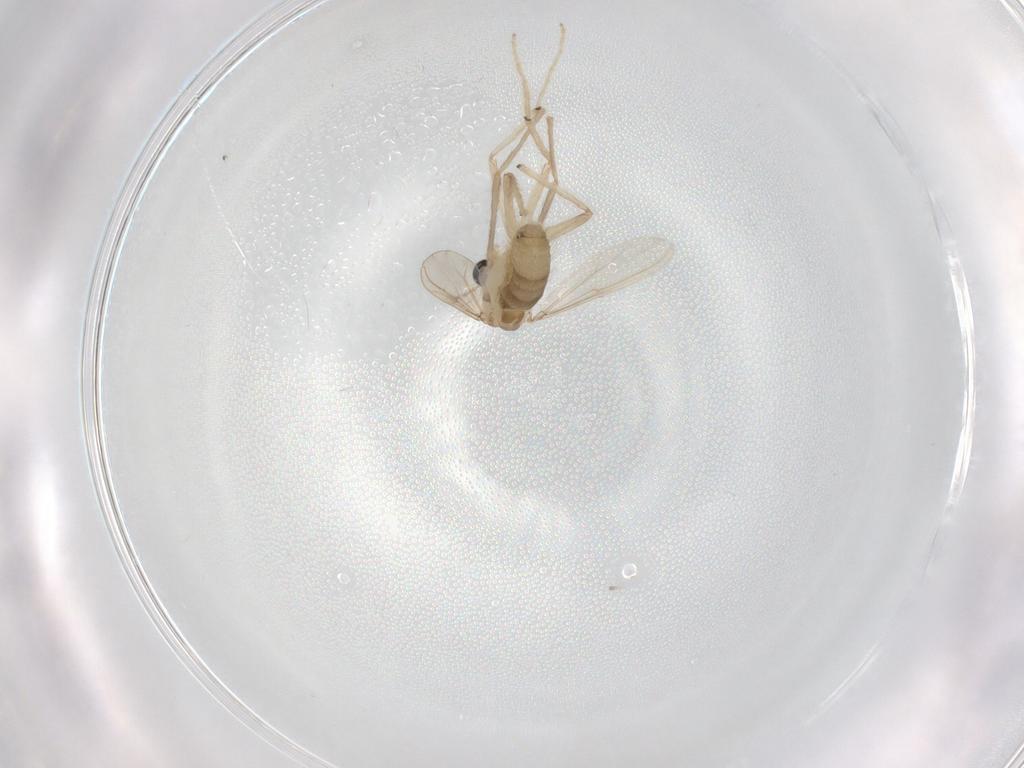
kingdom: Animalia
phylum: Arthropoda
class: Insecta
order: Diptera
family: Chironomidae
